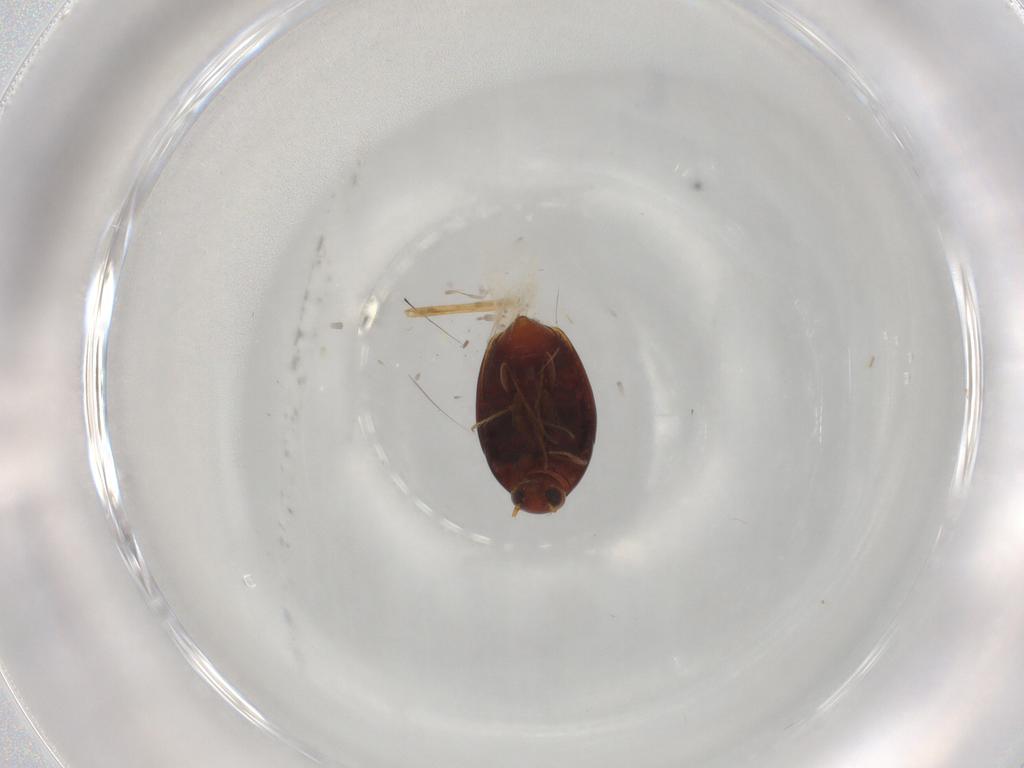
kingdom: Animalia
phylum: Arthropoda
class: Insecta
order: Coleoptera
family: Staphylinidae
